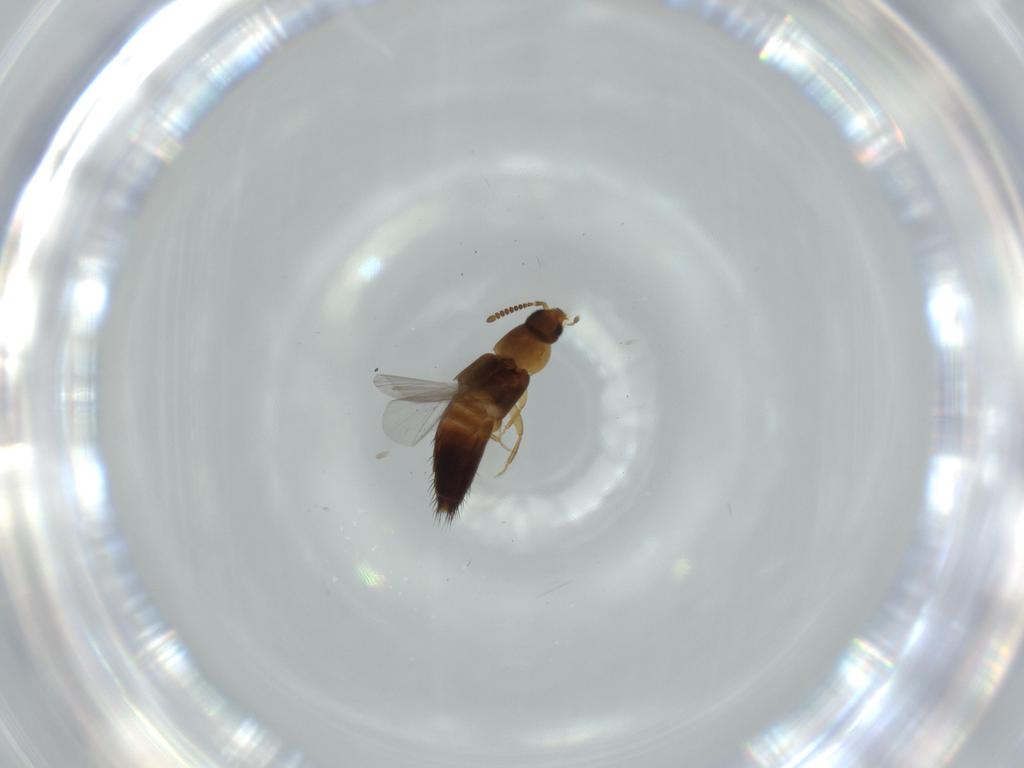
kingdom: Animalia
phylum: Arthropoda
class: Insecta
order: Coleoptera
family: Staphylinidae
